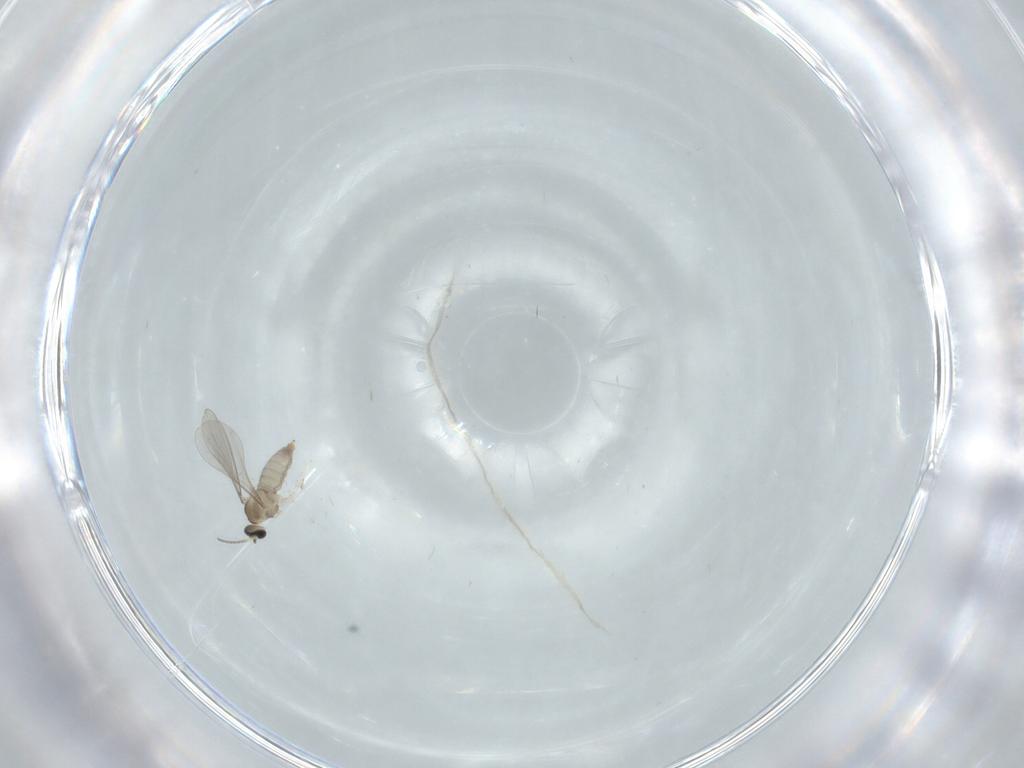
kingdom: Animalia
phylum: Arthropoda
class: Insecta
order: Diptera
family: Cecidomyiidae
